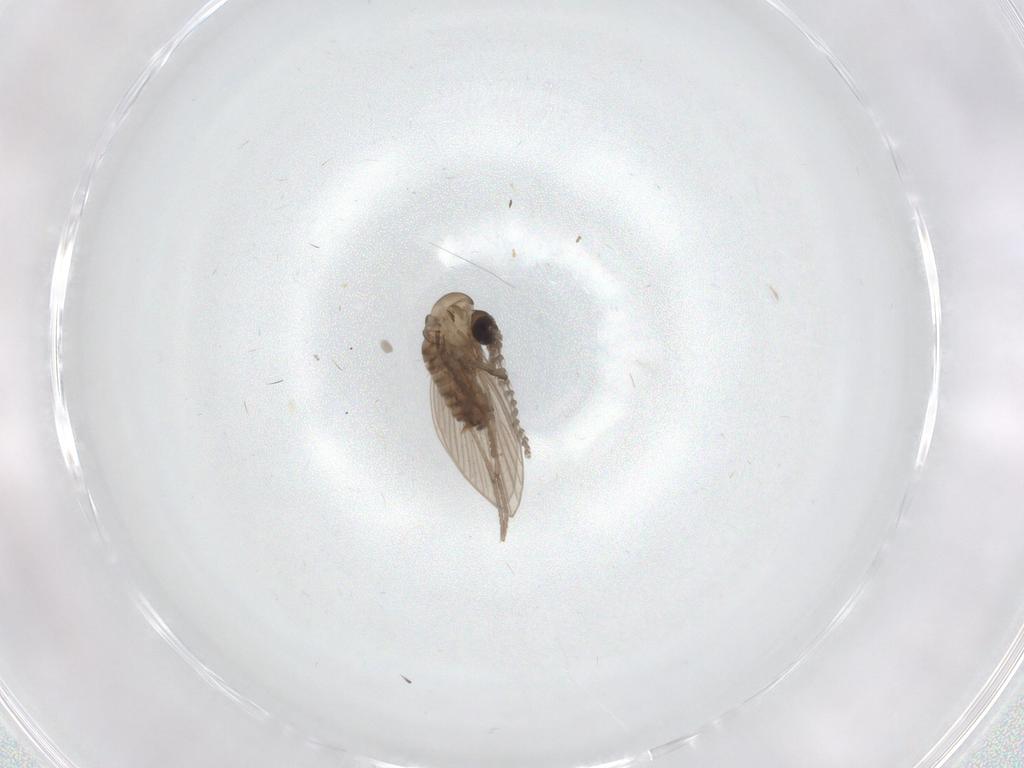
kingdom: Animalia
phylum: Arthropoda
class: Insecta
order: Diptera
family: Psychodidae
